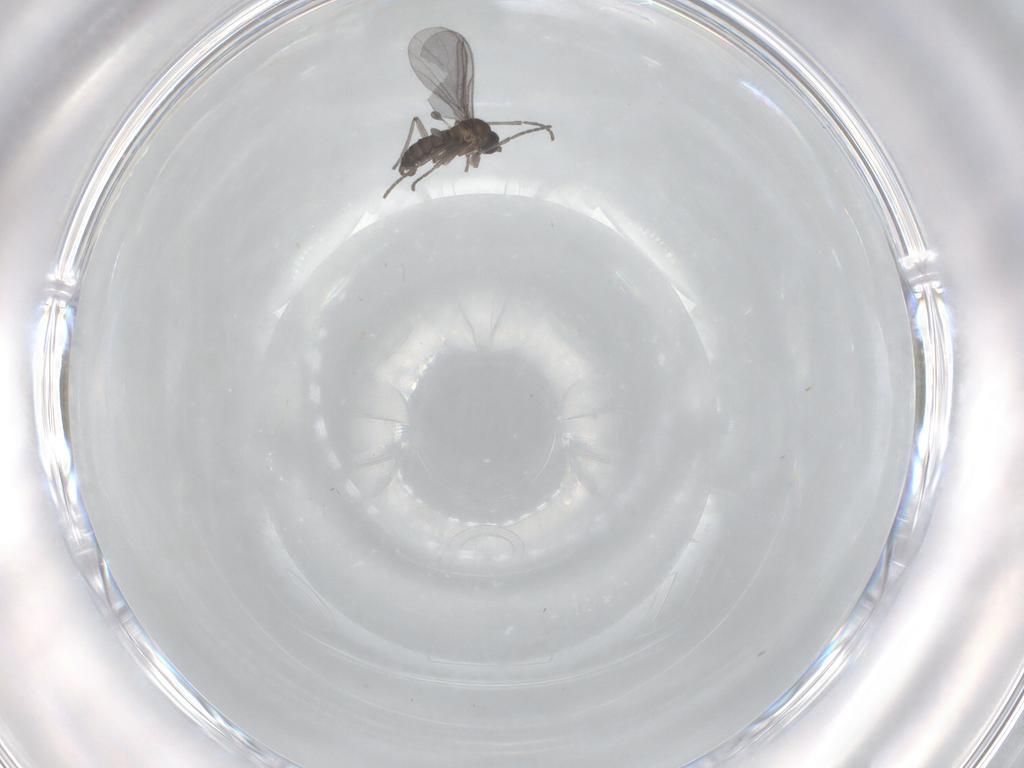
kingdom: Animalia
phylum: Arthropoda
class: Insecta
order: Diptera
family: Sciaridae
